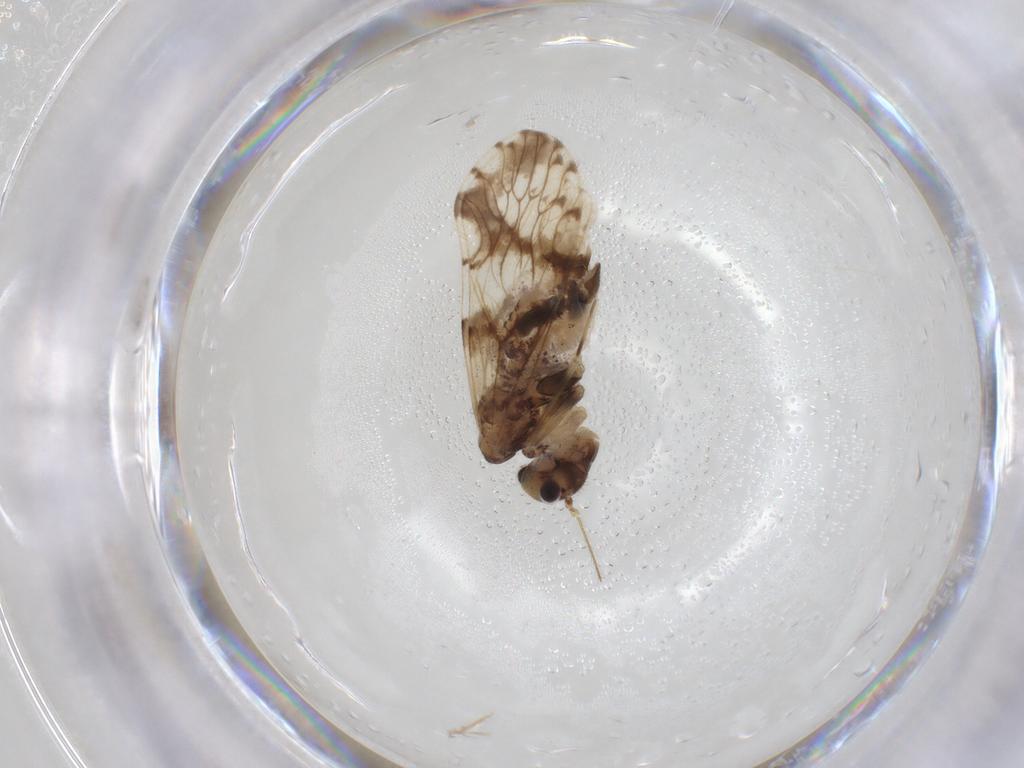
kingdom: Animalia
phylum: Arthropoda
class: Insecta
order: Psocodea
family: Epipsocidae
